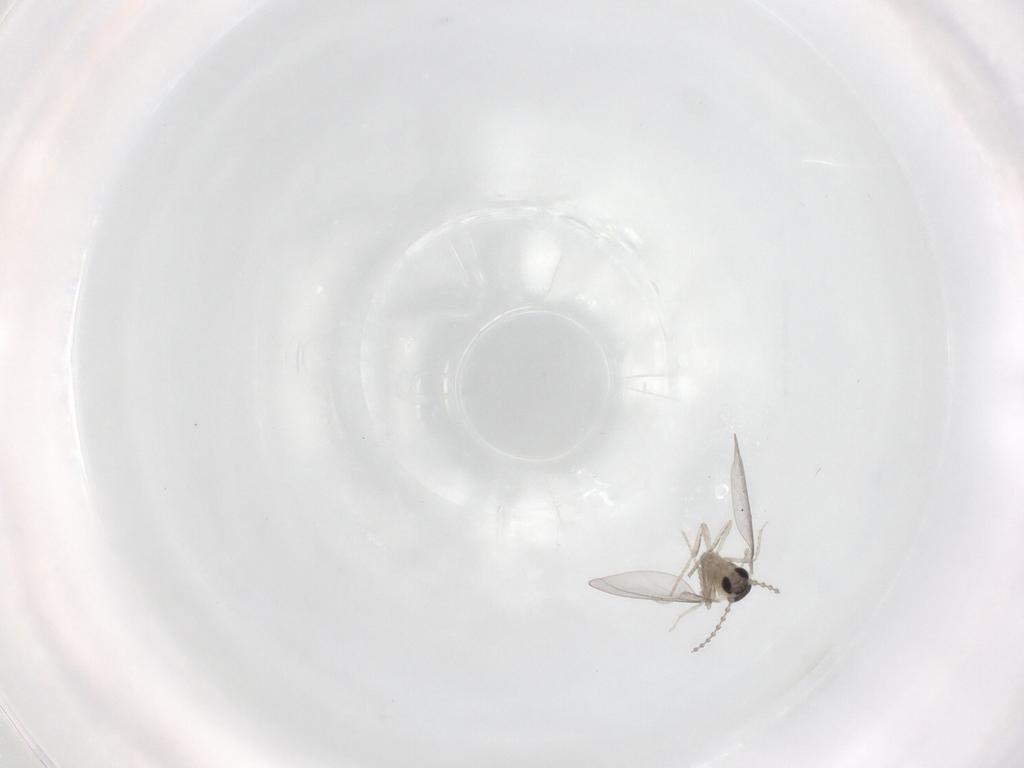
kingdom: Animalia
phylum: Arthropoda
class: Insecta
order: Diptera
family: Cecidomyiidae
